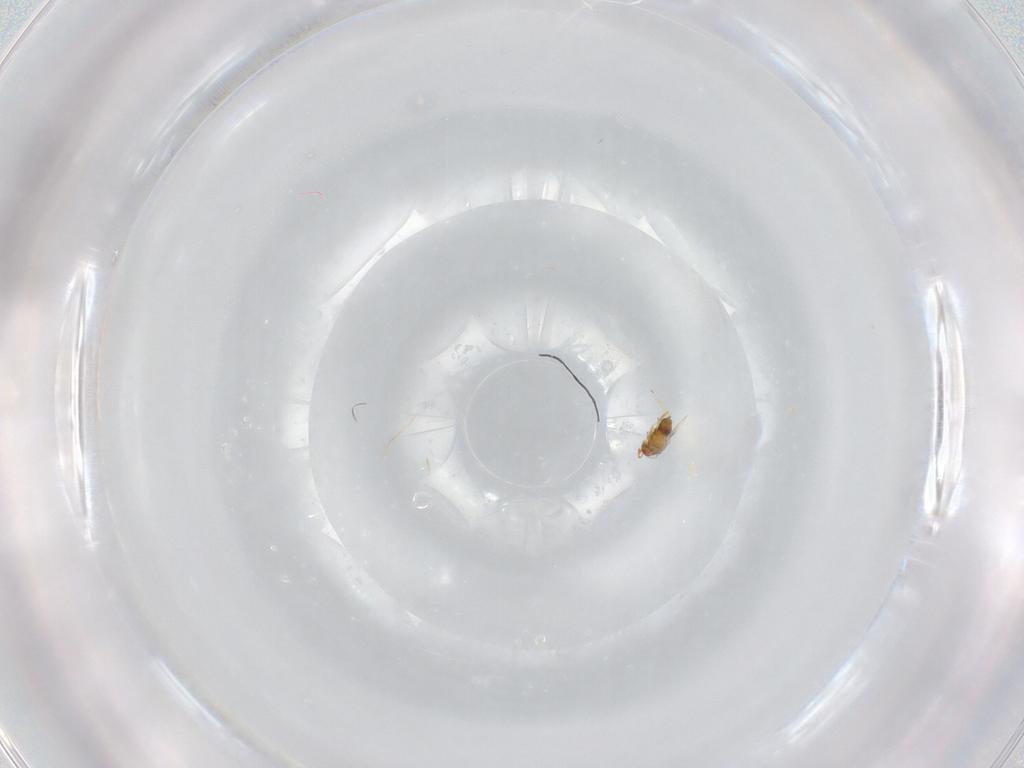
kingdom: Animalia
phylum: Arthropoda
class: Insecta
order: Hymenoptera
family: Trichogrammatidae
